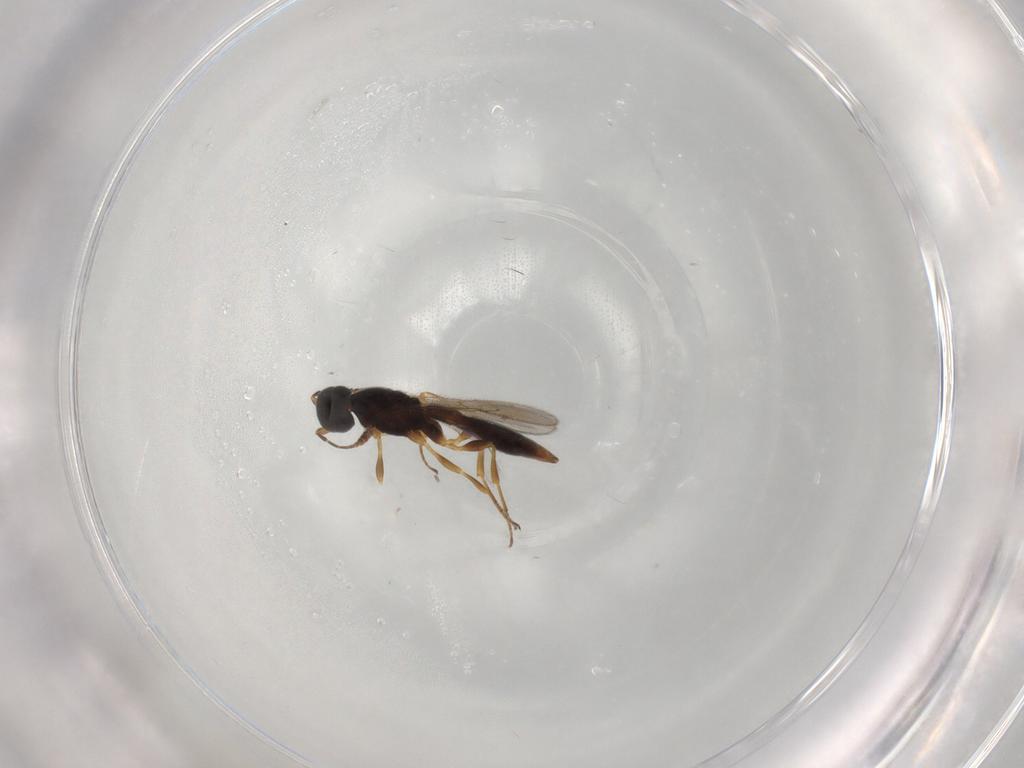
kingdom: Animalia
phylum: Arthropoda
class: Insecta
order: Hymenoptera
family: Scelionidae
